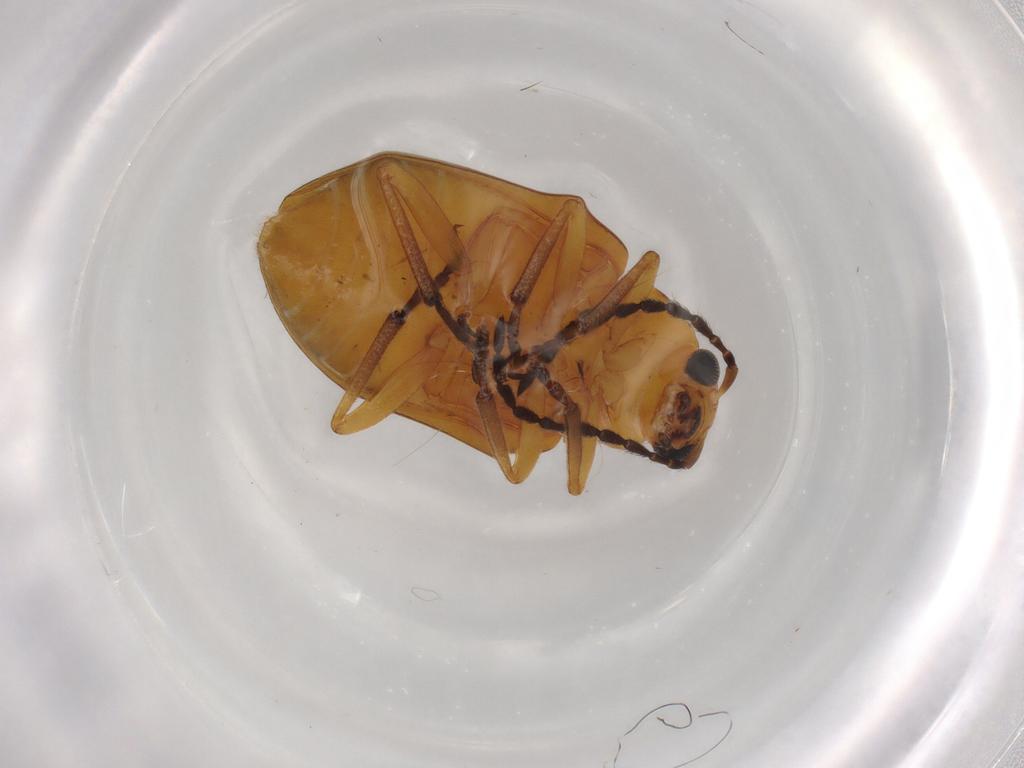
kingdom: Animalia
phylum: Arthropoda
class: Insecta
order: Coleoptera
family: Chrysomelidae
